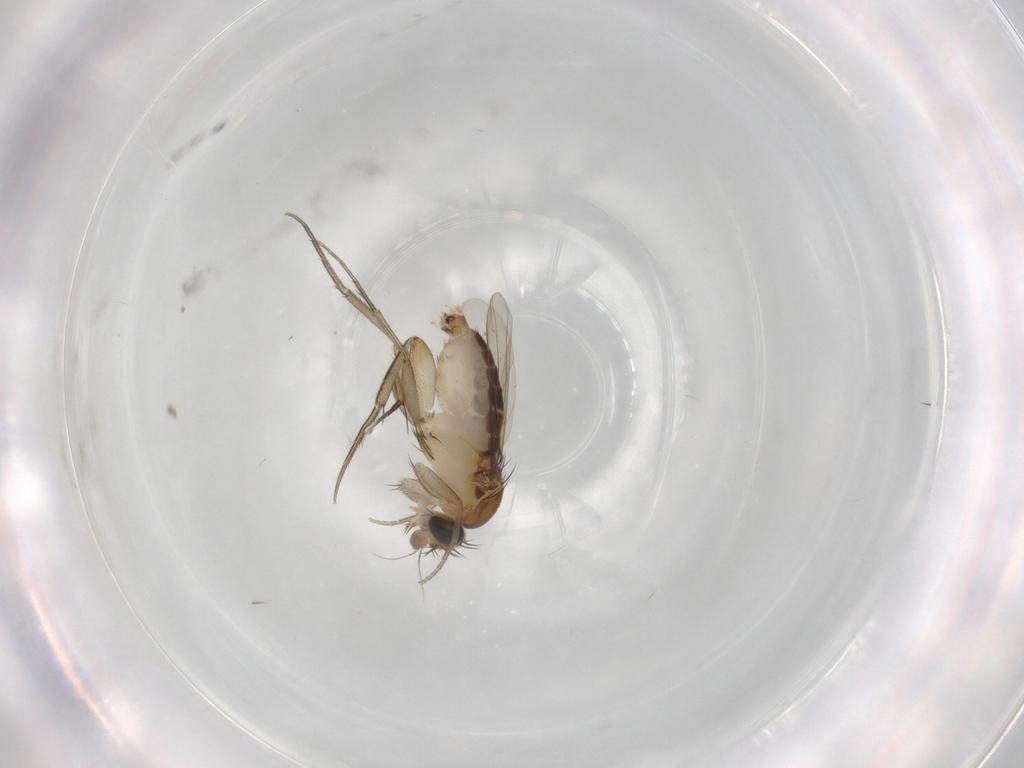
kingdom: Animalia
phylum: Arthropoda
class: Insecta
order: Diptera
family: Phoridae
